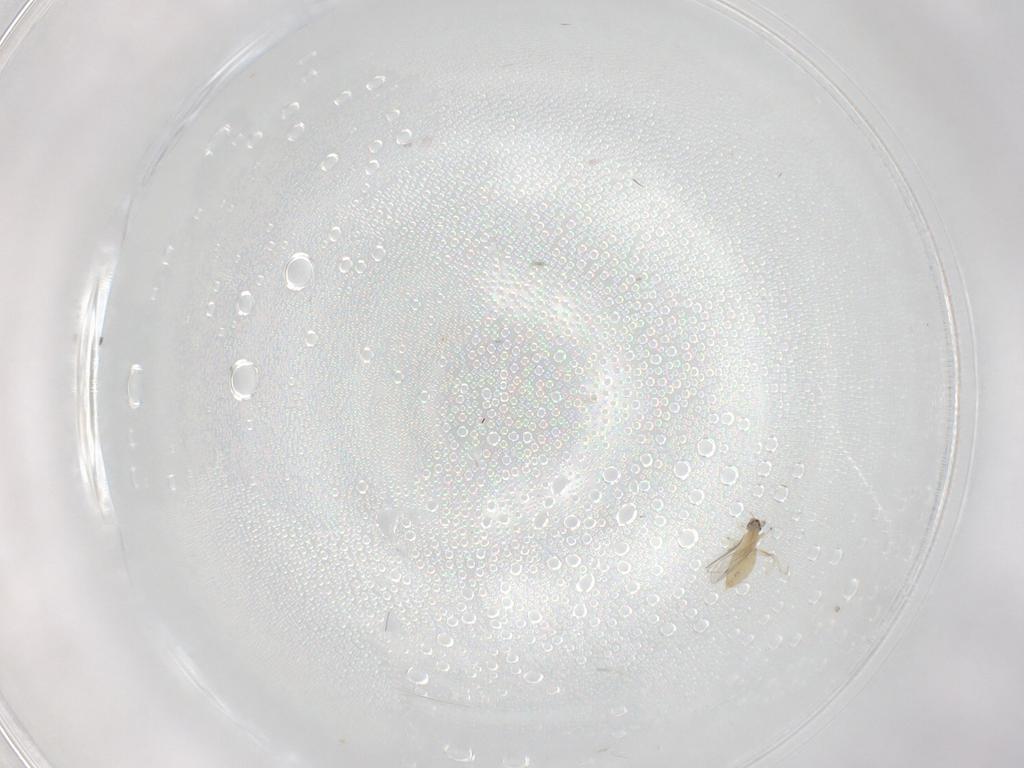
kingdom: Animalia
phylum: Arthropoda
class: Insecta
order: Diptera
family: Cecidomyiidae
